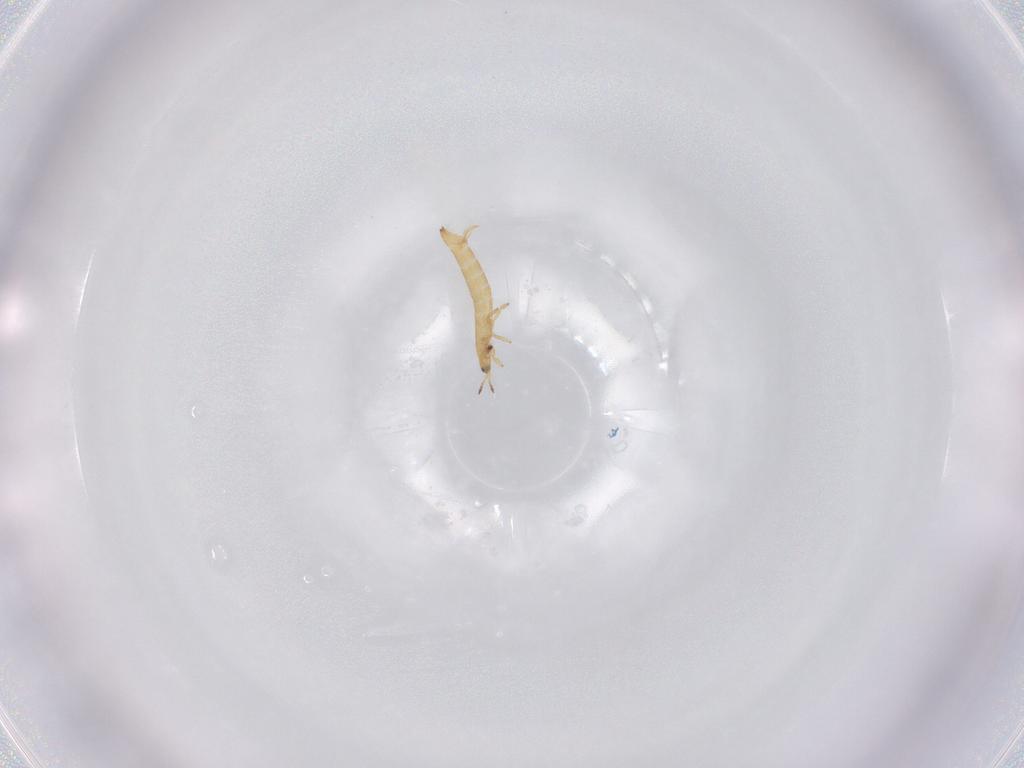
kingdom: Animalia
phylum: Arthropoda
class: Insecta
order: Thysanoptera
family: Thripidae
